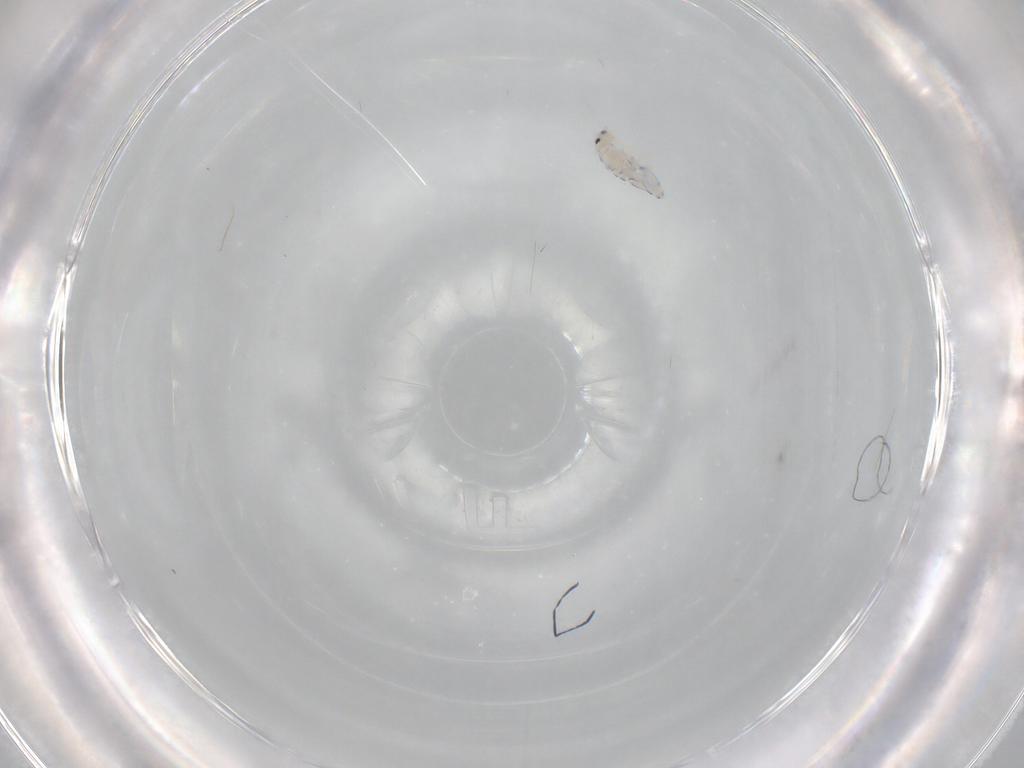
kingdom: Animalia
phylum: Arthropoda
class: Collembola
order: Entomobryomorpha
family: Entomobryidae
